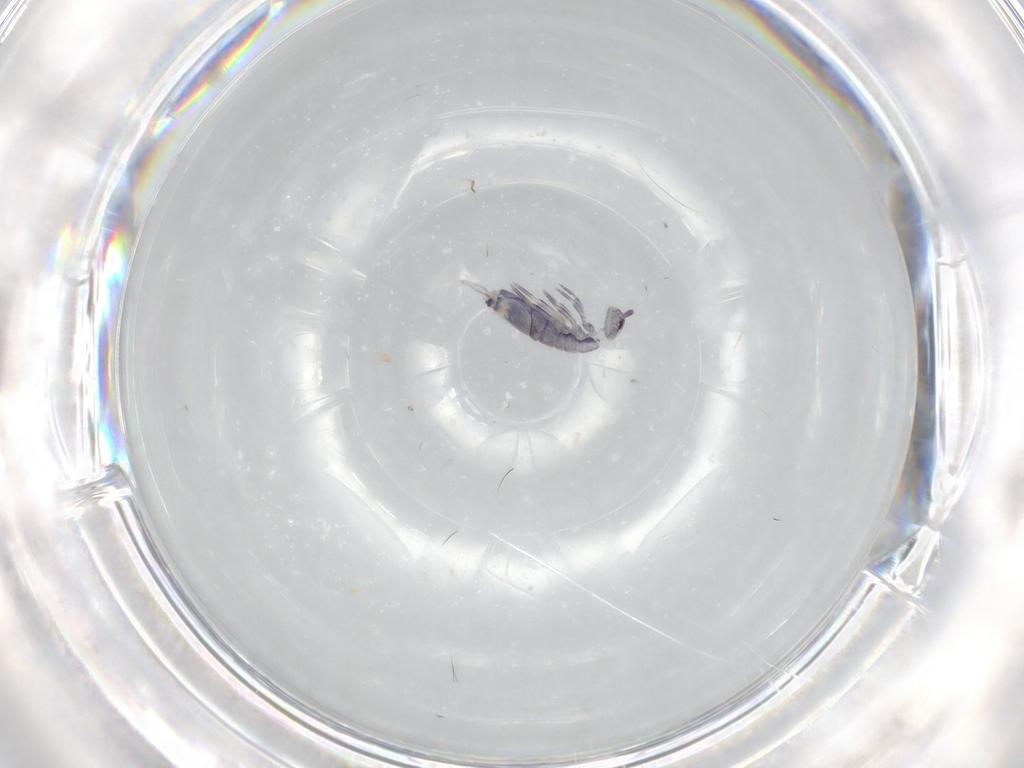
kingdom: Animalia
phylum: Arthropoda
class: Collembola
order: Entomobryomorpha
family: Entomobryidae
